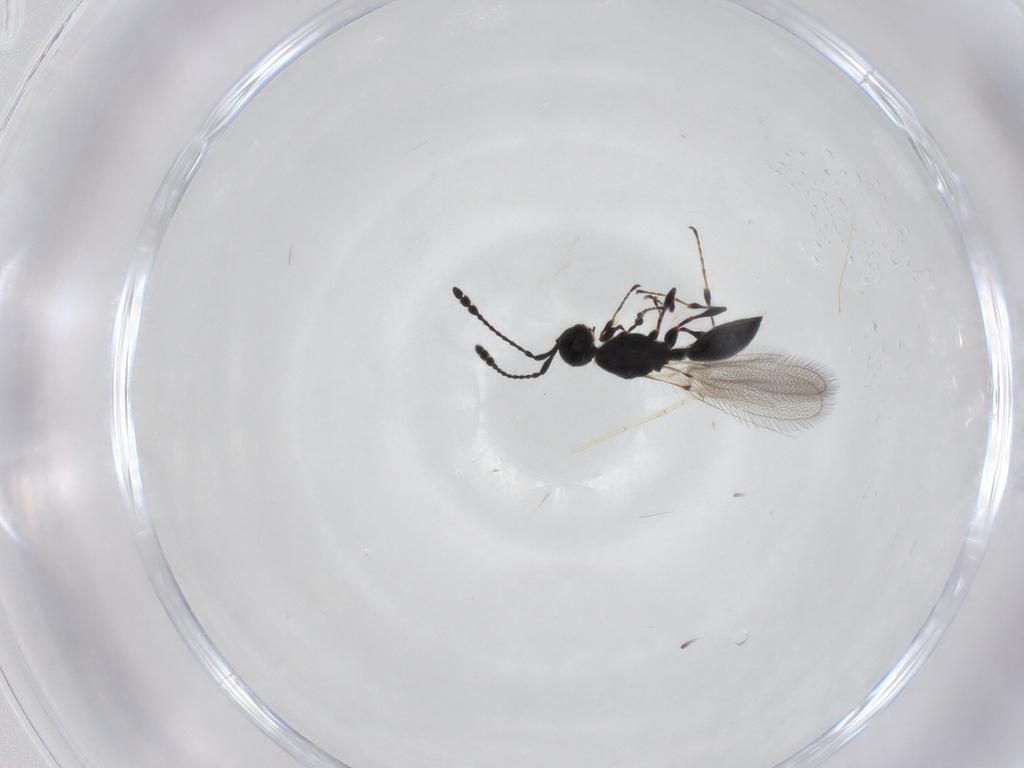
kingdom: Animalia
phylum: Arthropoda
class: Insecta
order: Hymenoptera
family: Diapriidae
